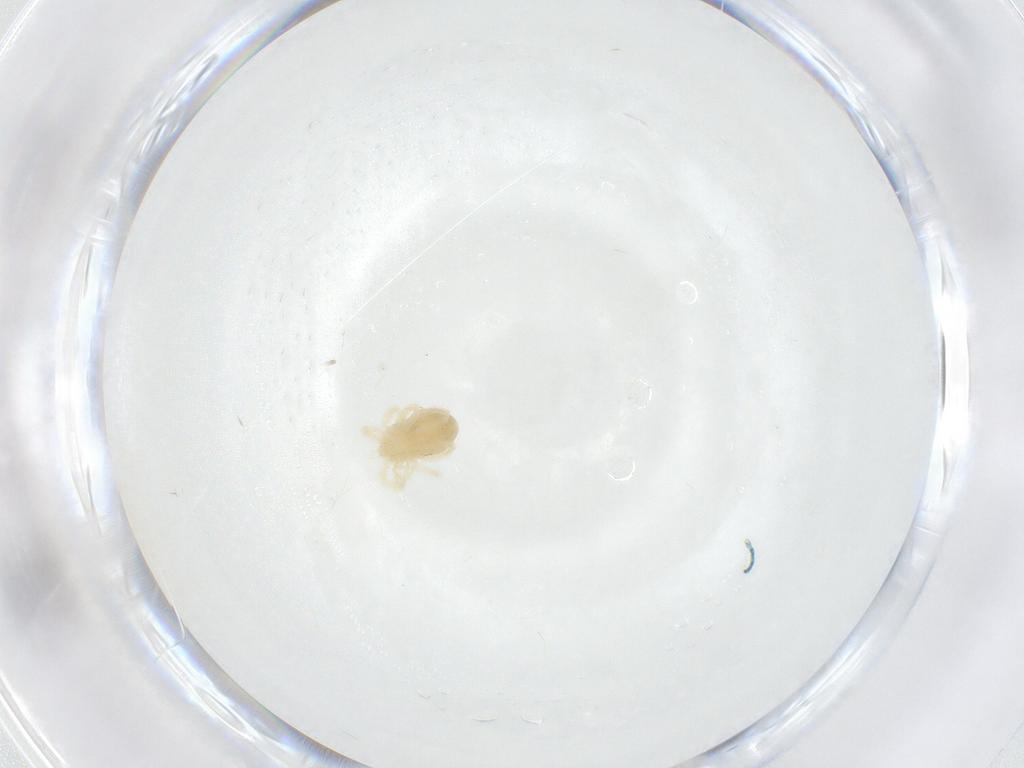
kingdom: Animalia
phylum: Arthropoda
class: Arachnida
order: Trombidiformes
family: Anystidae
